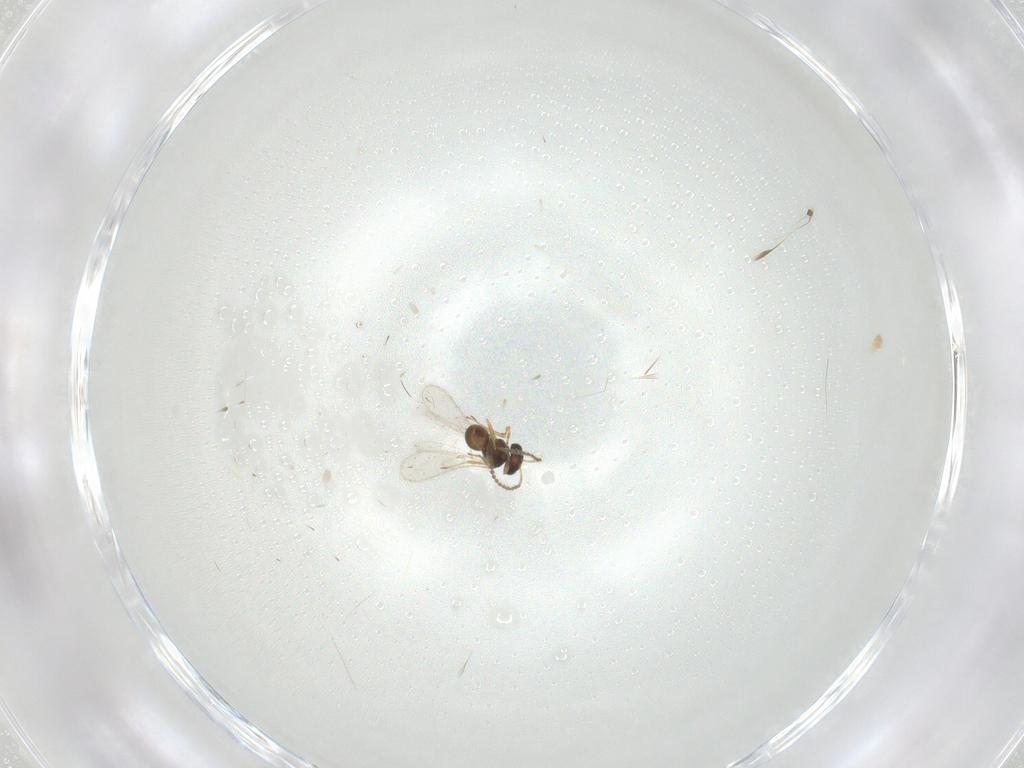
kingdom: Animalia
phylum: Arthropoda
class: Insecta
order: Hymenoptera
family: Scelionidae
